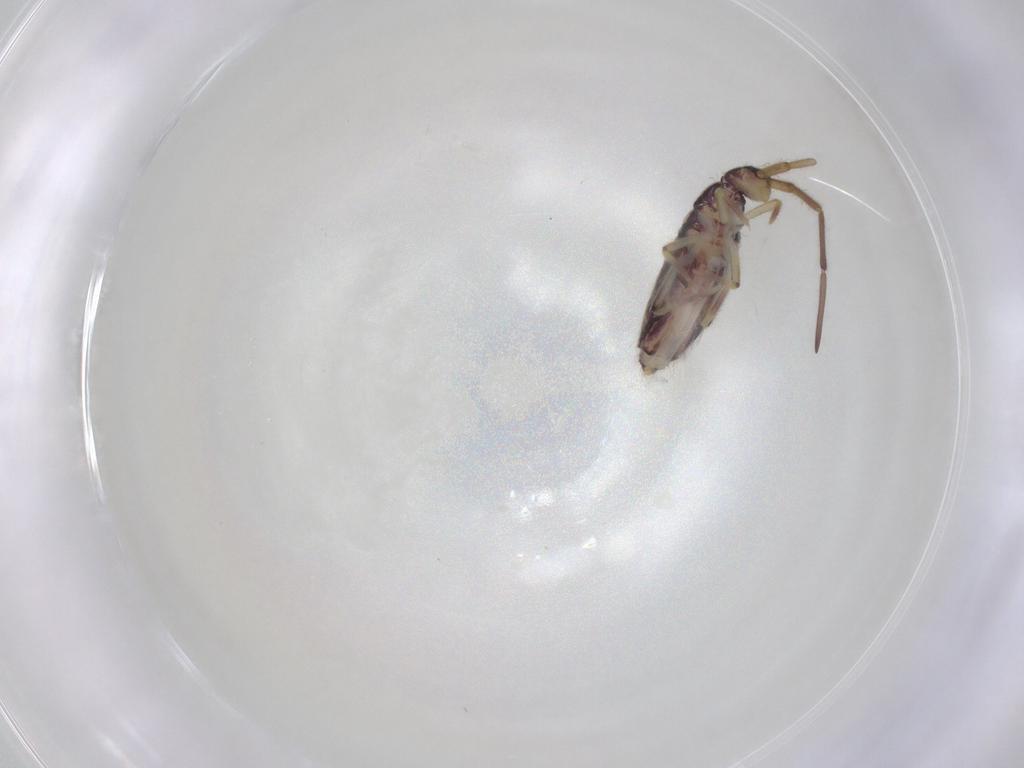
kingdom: Animalia
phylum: Arthropoda
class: Collembola
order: Entomobryomorpha
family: Entomobryidae
